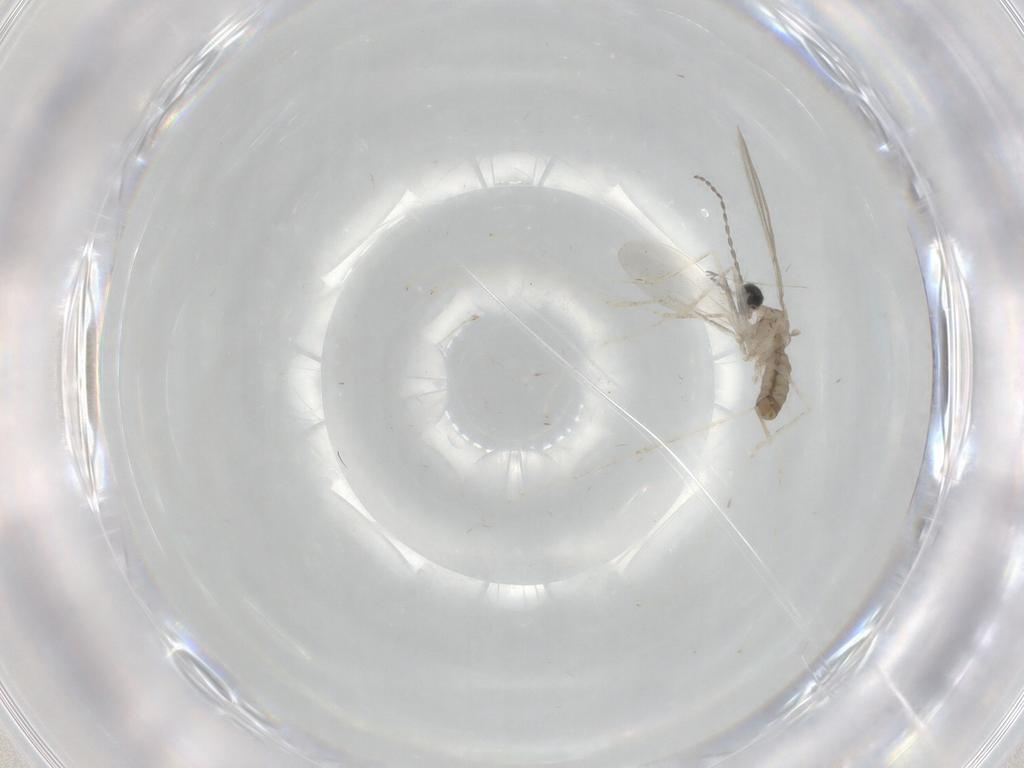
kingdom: Animalia
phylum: Arthropoda
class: Insecta
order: Diptera
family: Cecidomyiidae
